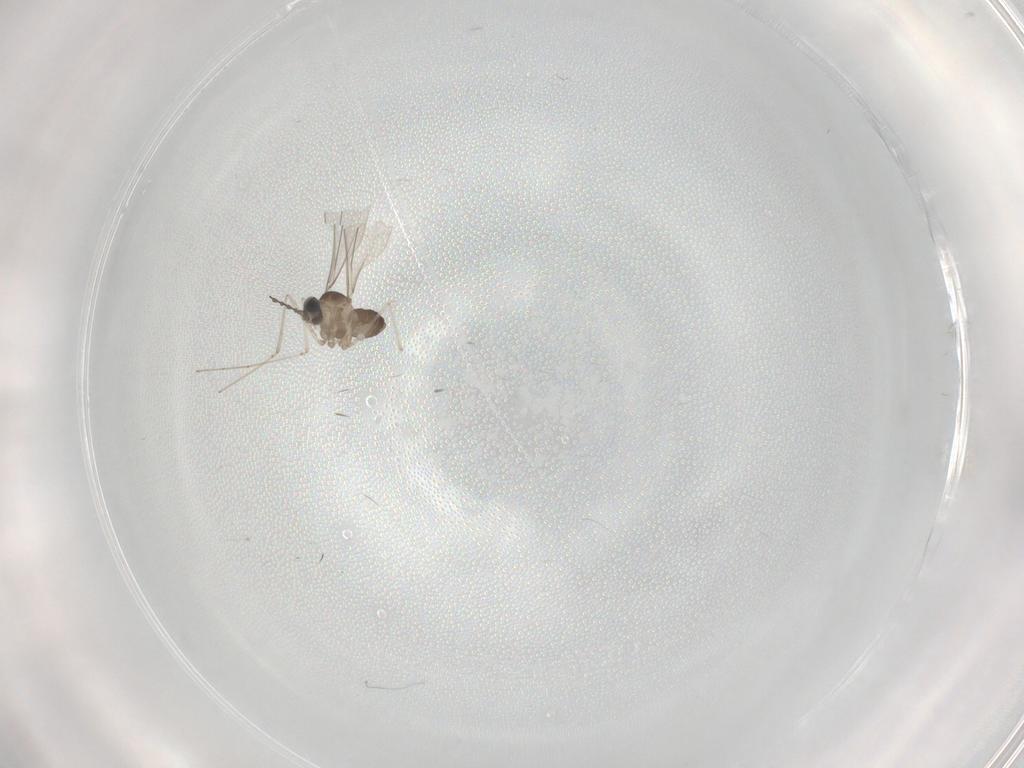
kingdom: Animalia
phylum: Arthropoda
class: Insecta
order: Diptera
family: Cecidomyiidae
